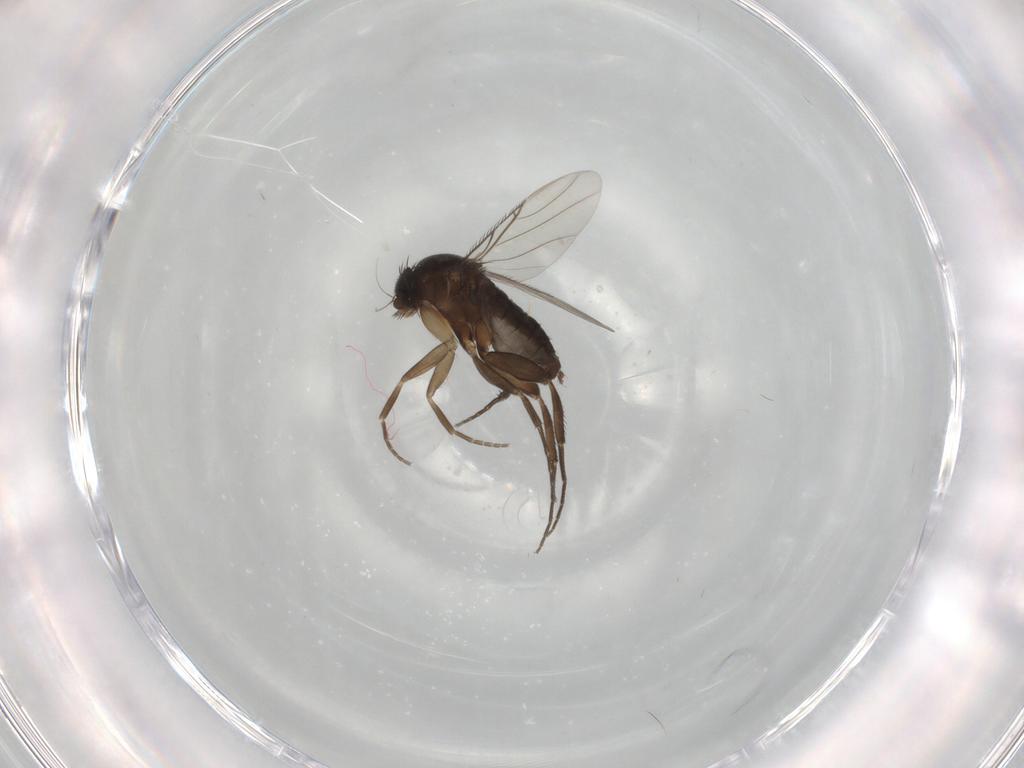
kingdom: Animalia
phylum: Arthropoda
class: Insecta
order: Diptera
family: Phoridae
